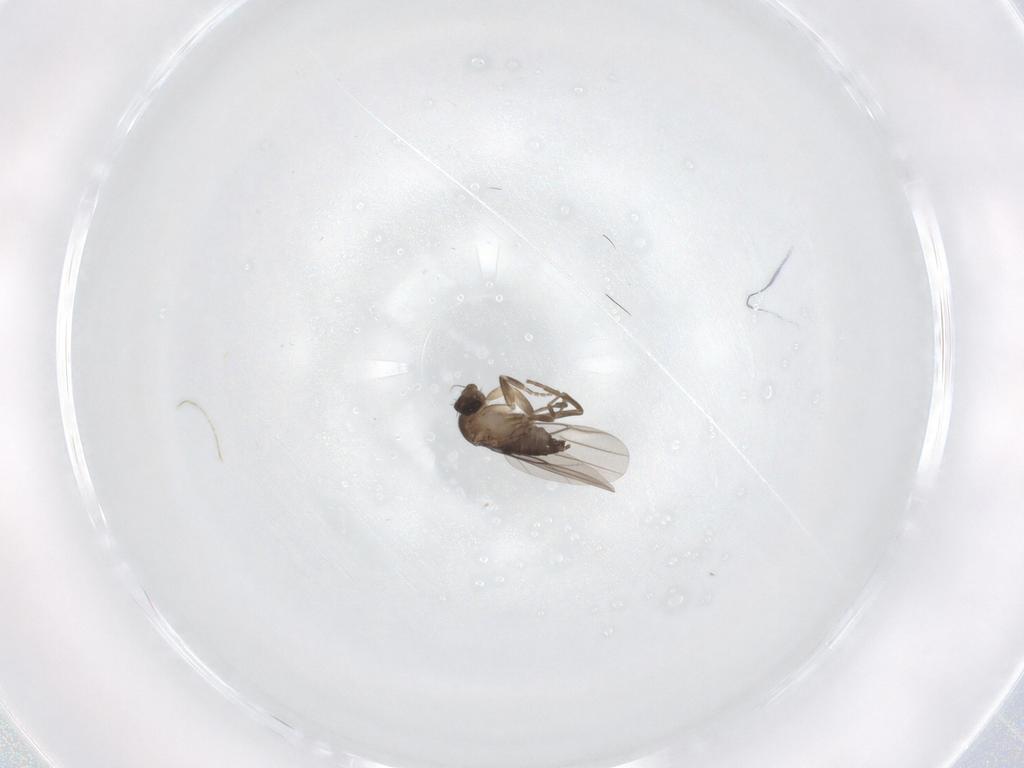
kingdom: Animalia
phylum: Arthropoda
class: Insecta
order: Diptera
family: Phoridae
